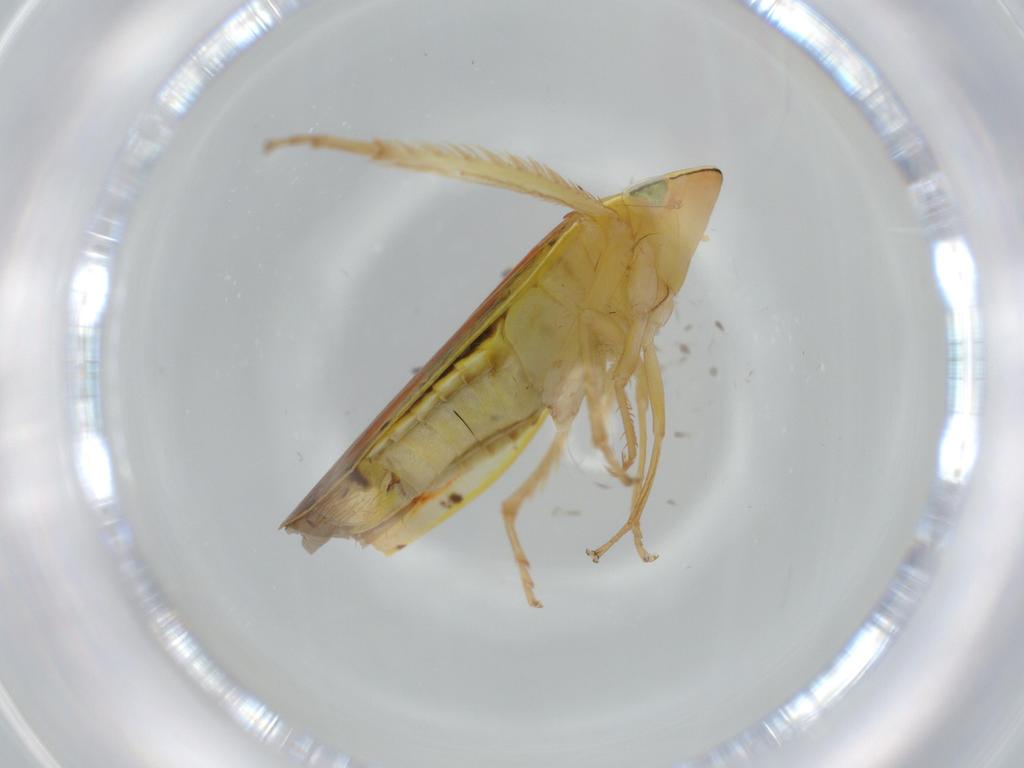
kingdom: Animalia
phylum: Arthropoda
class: Insecta
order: Hemiptera
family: Cicadellidae
